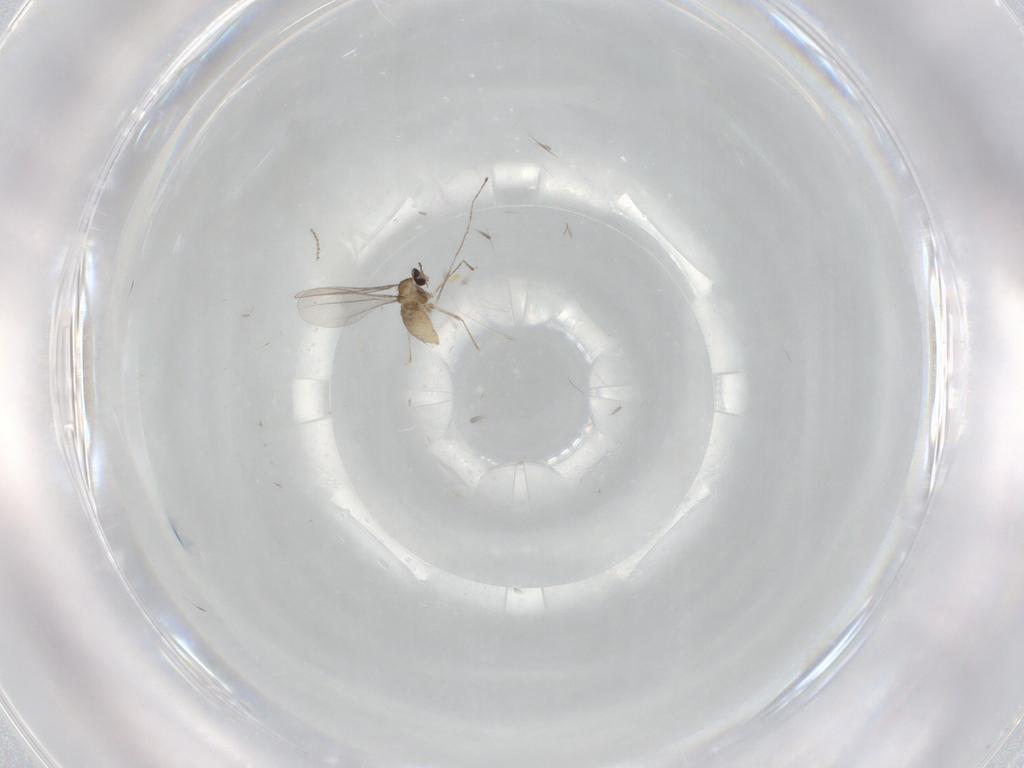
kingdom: Animalia
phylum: Arthropoda
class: Insecta
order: Diptera
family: Cecidomyiidae
